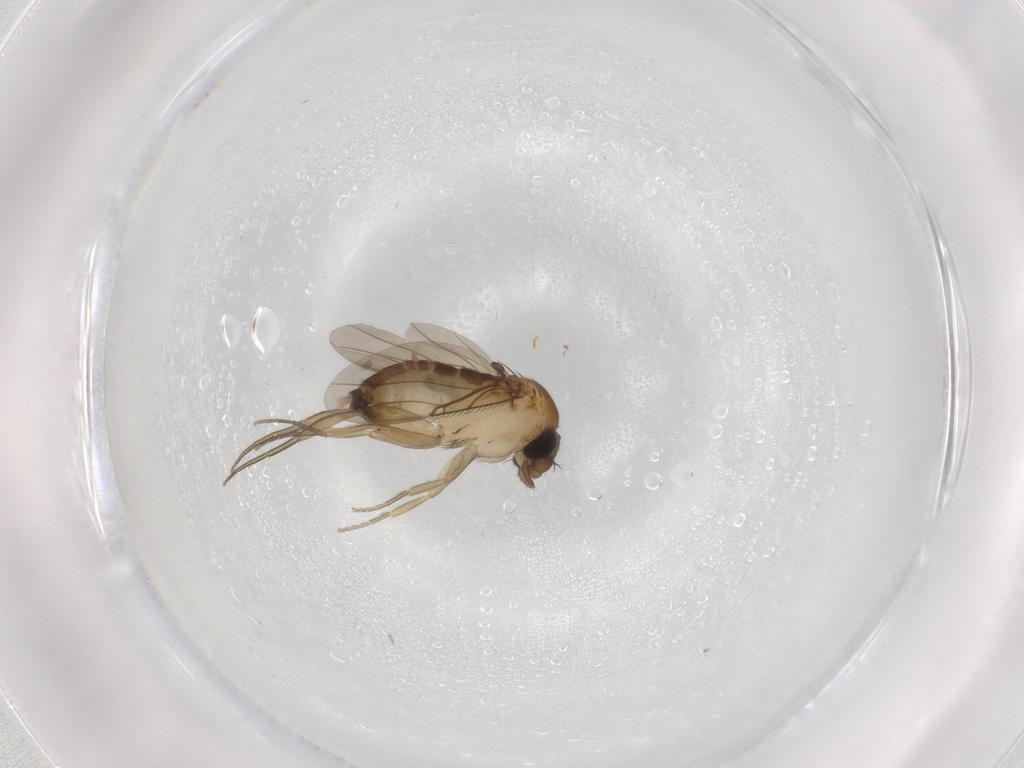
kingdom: Animalia
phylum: Arthropoda
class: Insecta
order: Diptera
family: Phoridae
